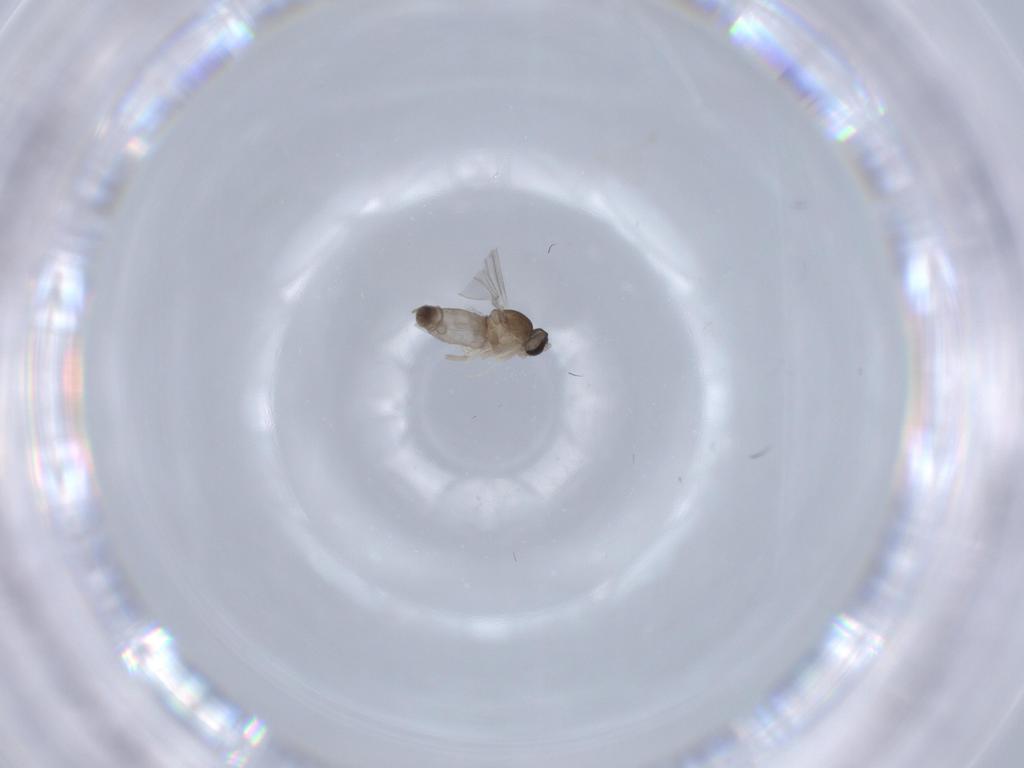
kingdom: Animalia
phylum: Arthropoda
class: Insecta
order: Diptera
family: Cecidomyiidae
